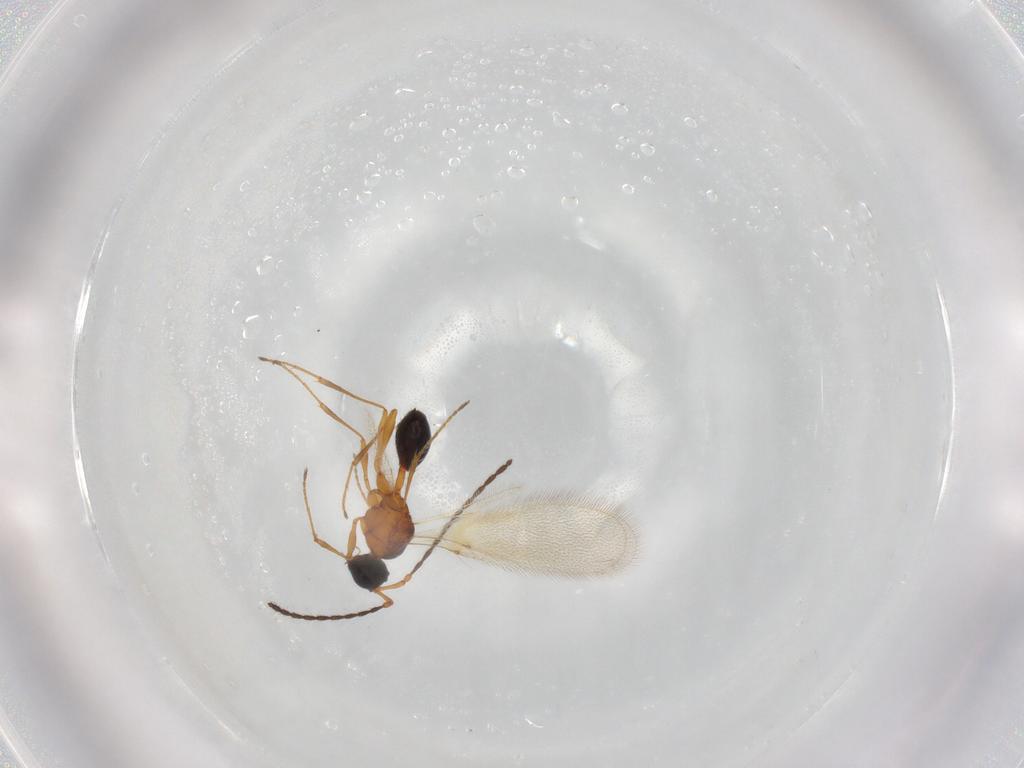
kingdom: Animalia
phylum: Arthropoda
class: Insecta
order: Hymenoptera
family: Diapriidae
